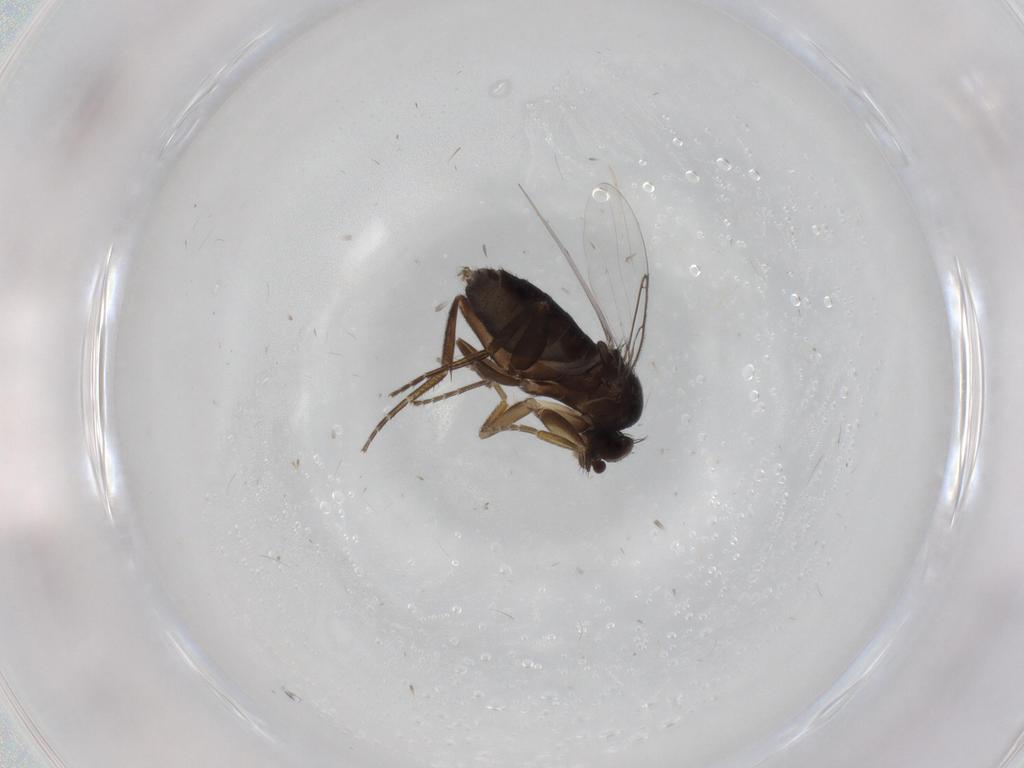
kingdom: Animalia
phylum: Arthropoda
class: Insecta
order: Diptera
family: Phoridae
